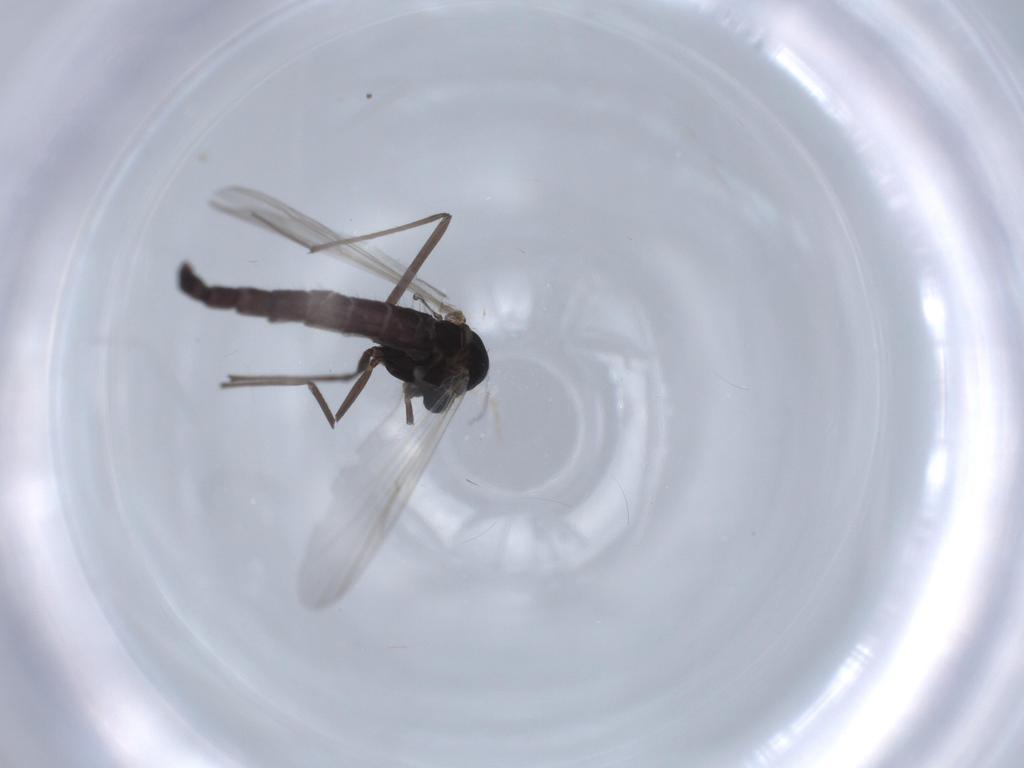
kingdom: Animalia
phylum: Arthropoda
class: Insecta
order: Diptera
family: Chironomidae
